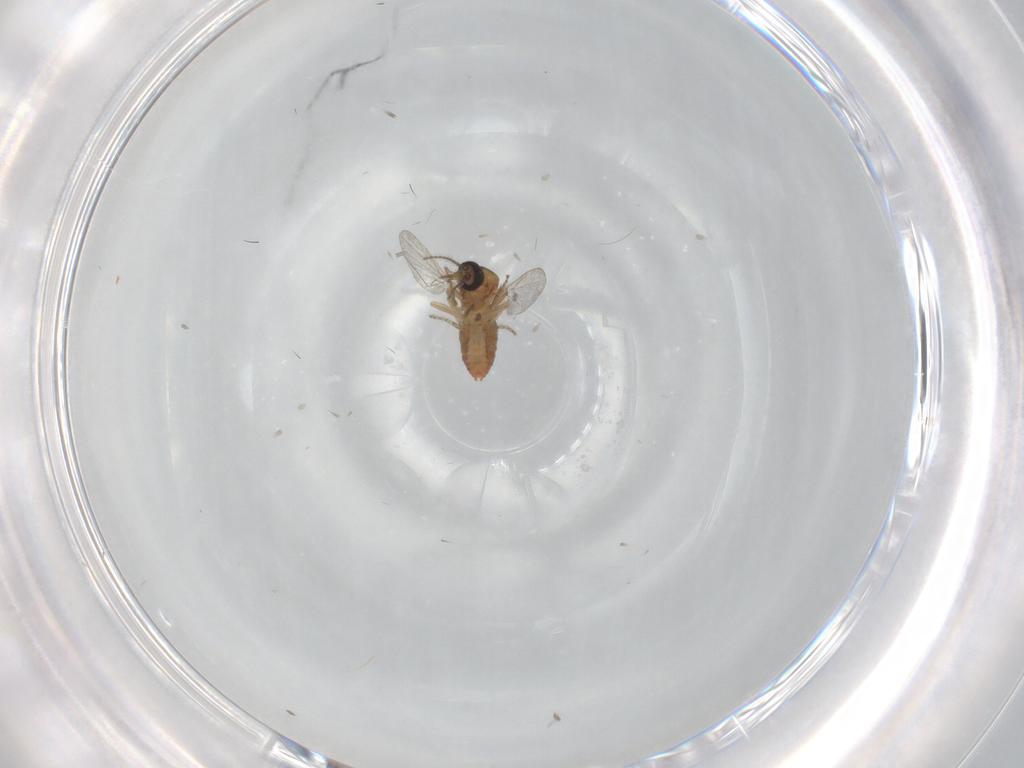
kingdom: Animalia
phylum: Arthropoda
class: Insecta
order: Diptera
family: Ceratopogonidae
